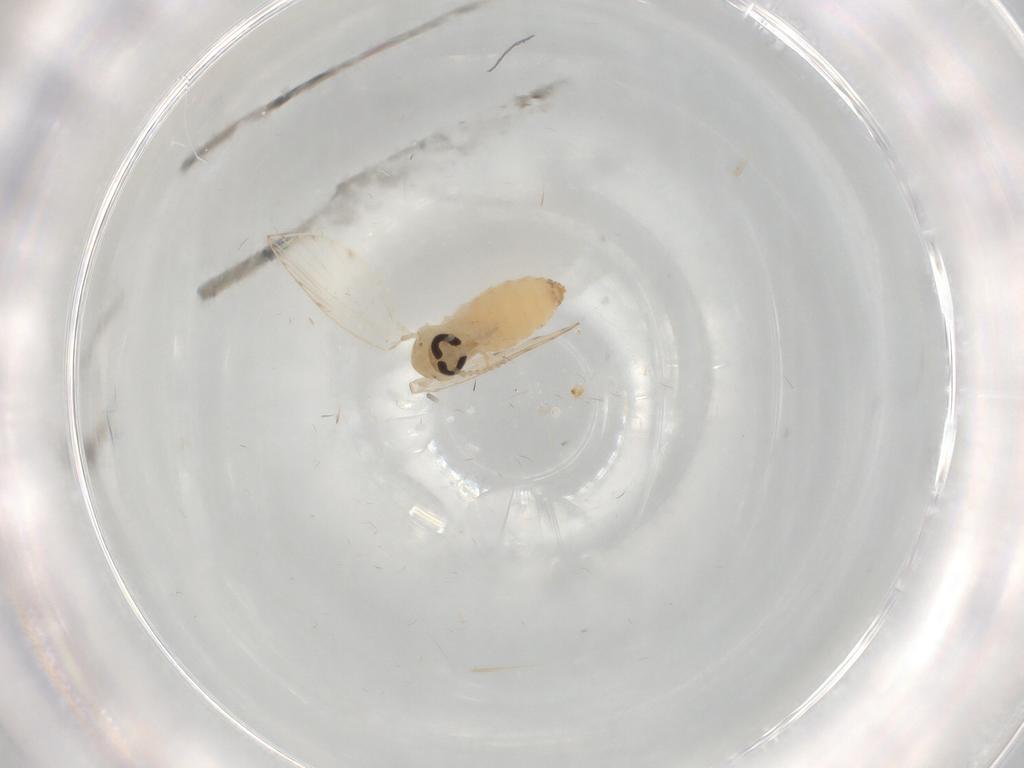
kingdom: Animalia
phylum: Arthropoda
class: Insecta
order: Diptera
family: Psychodidae
